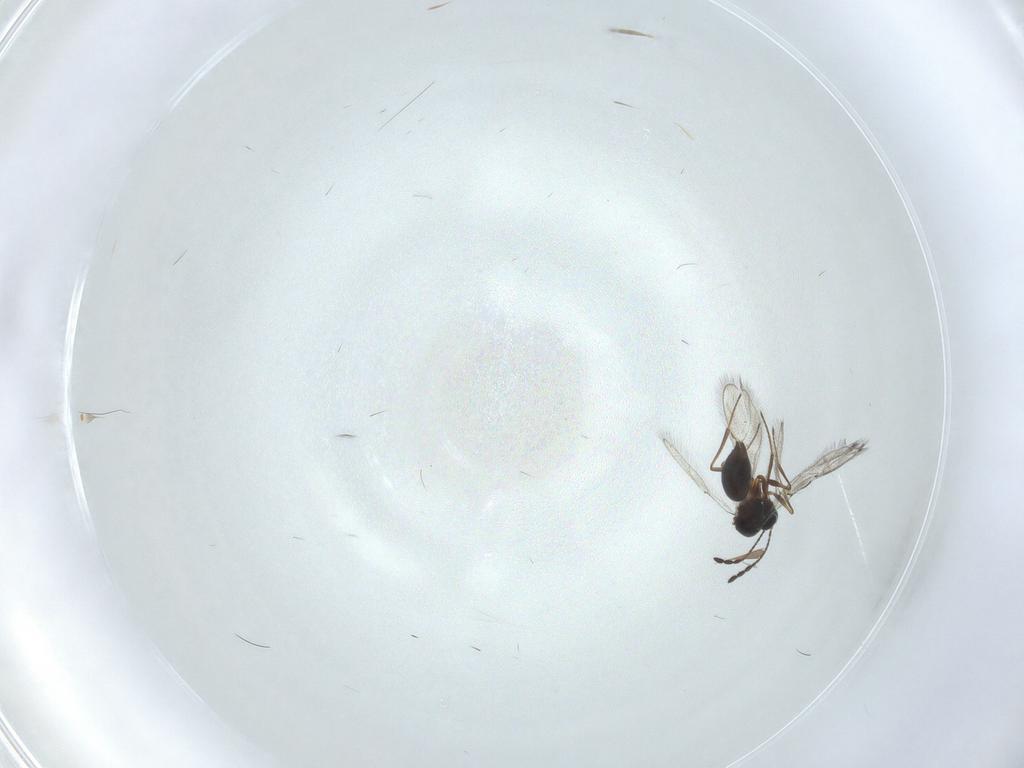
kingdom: Animalia
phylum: Arthropoda
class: Insecta
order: Hymenoptera
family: Figitidae
